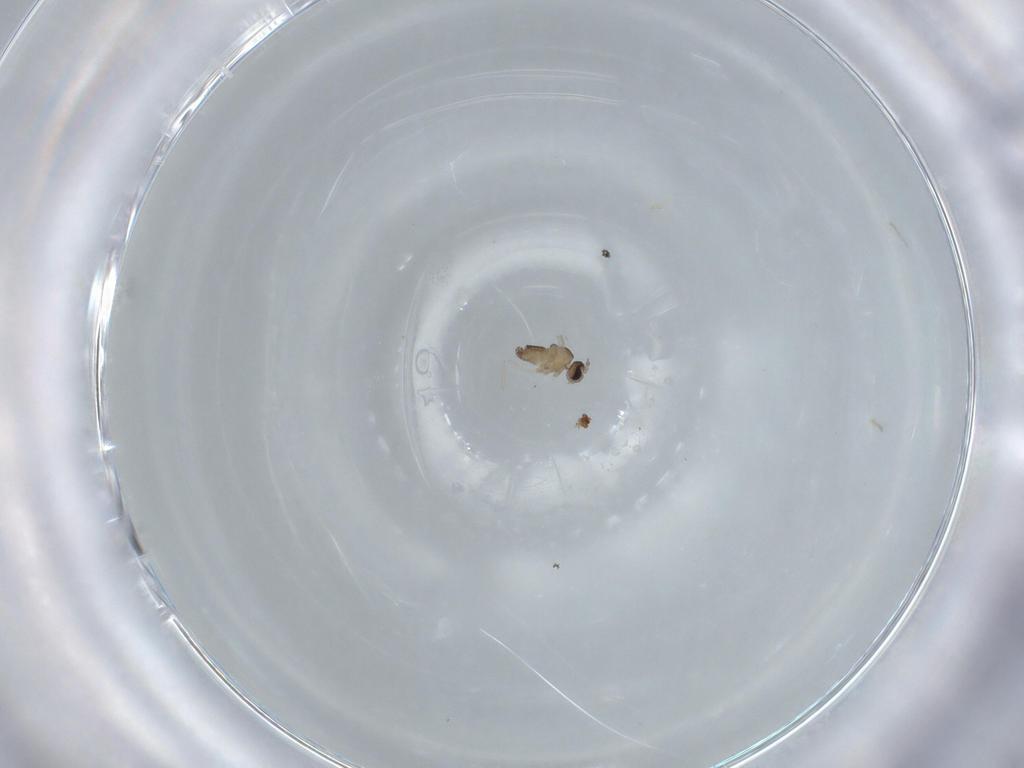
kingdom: Animalia
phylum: Arthropoda
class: Insecta
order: Diptera
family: Cecidomyiidae
